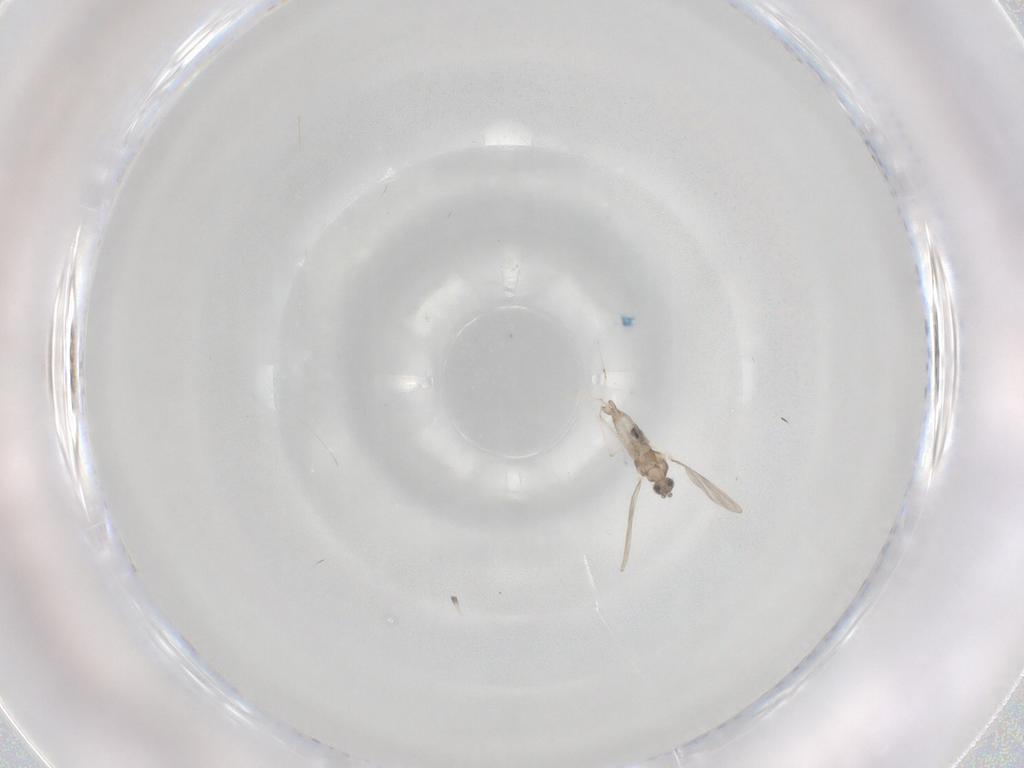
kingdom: Animalia
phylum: Arthropoda
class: Insecta
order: Diptera
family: Cecidomyiidae
